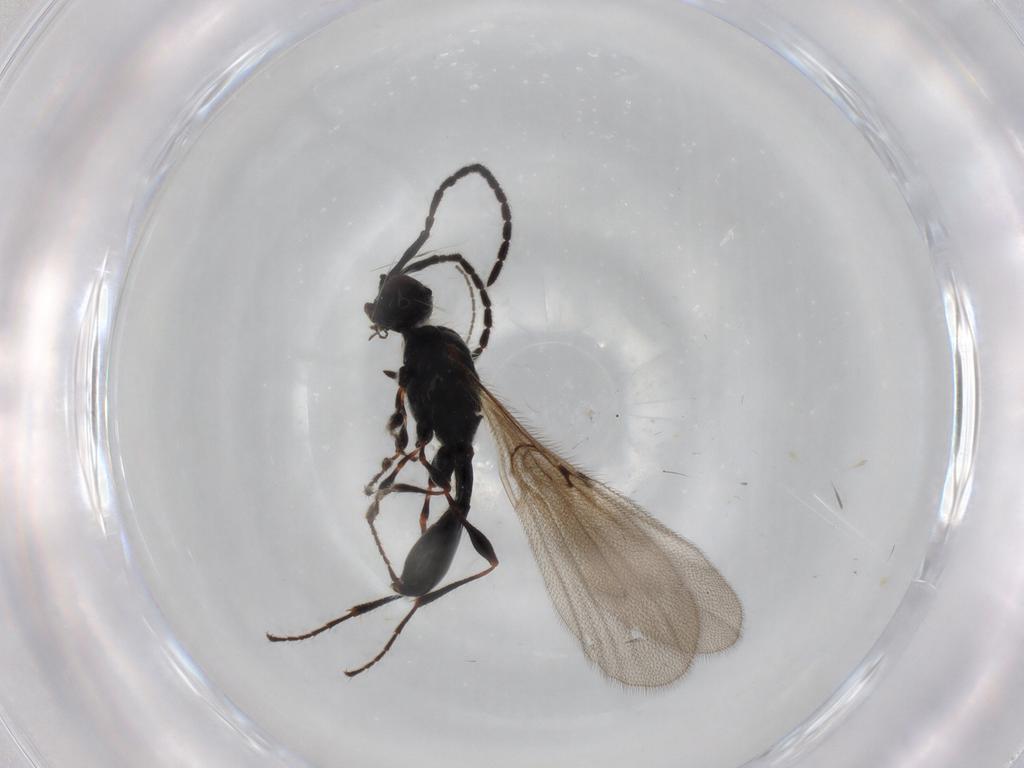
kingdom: Animalia
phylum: Arthropoda
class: Insecta
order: Hymenoptera
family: Diapriidae
